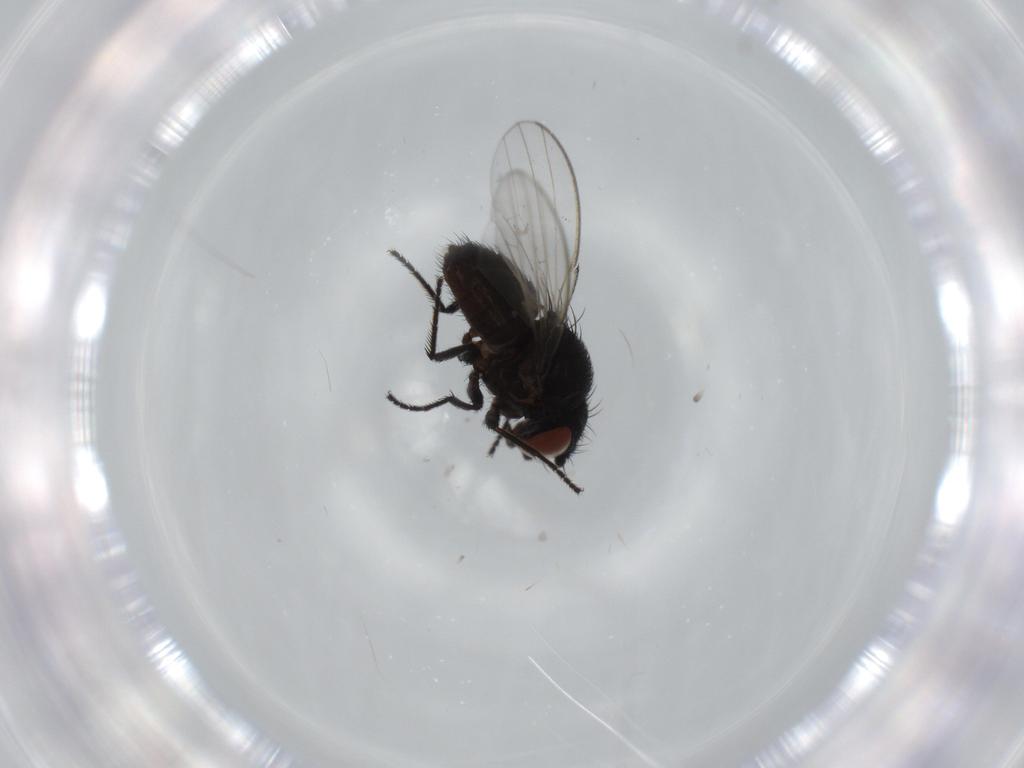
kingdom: Animalia
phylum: Arthropoda
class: Insecta
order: Diptera
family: Milichiidae
